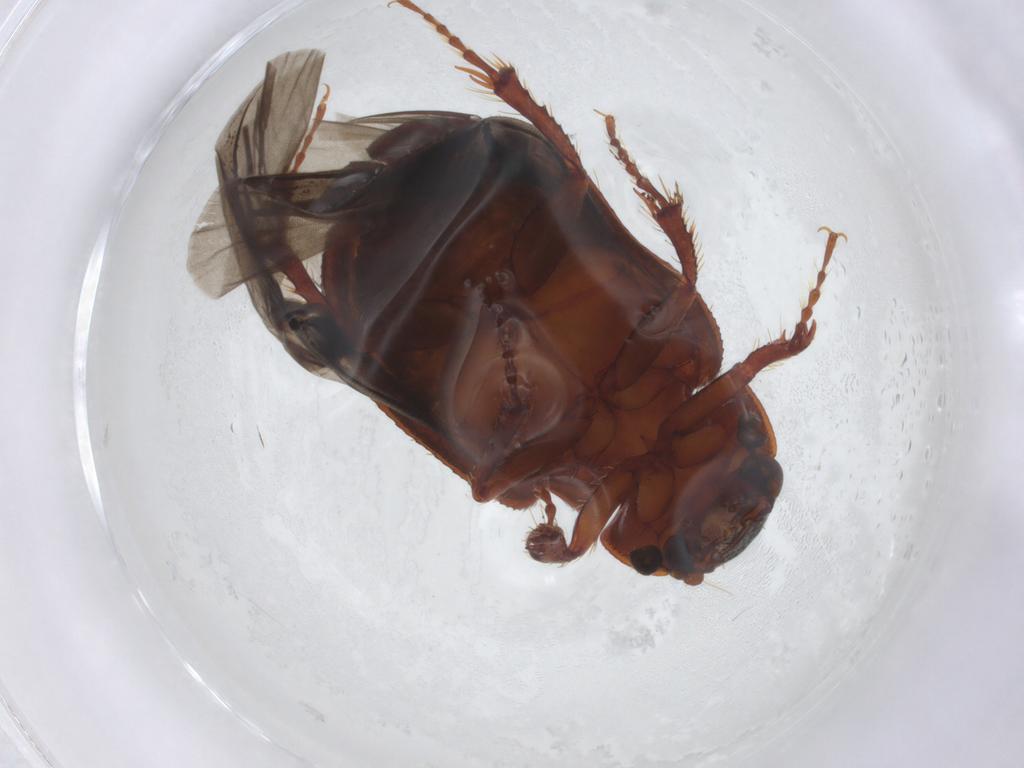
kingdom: Animalia
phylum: Arthropoda
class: Insecta
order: Coleoptera
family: Hybosoridae
